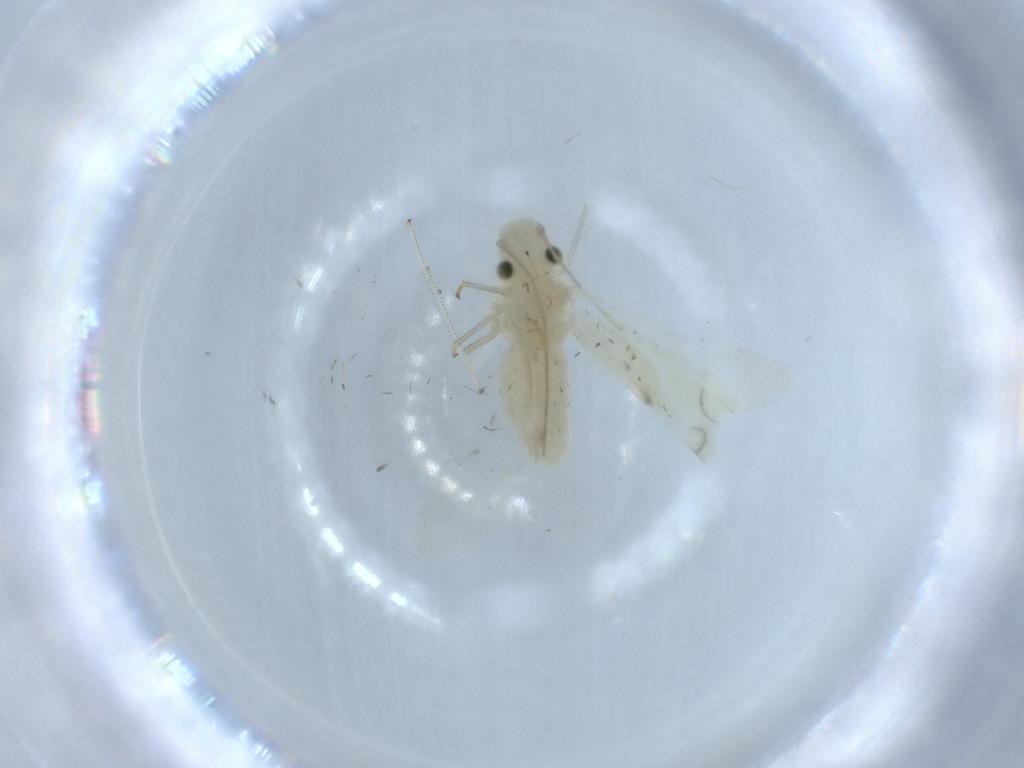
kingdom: Animalia
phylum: Arthropoda
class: Insecta
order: Psocodea
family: Caeciliusidae
